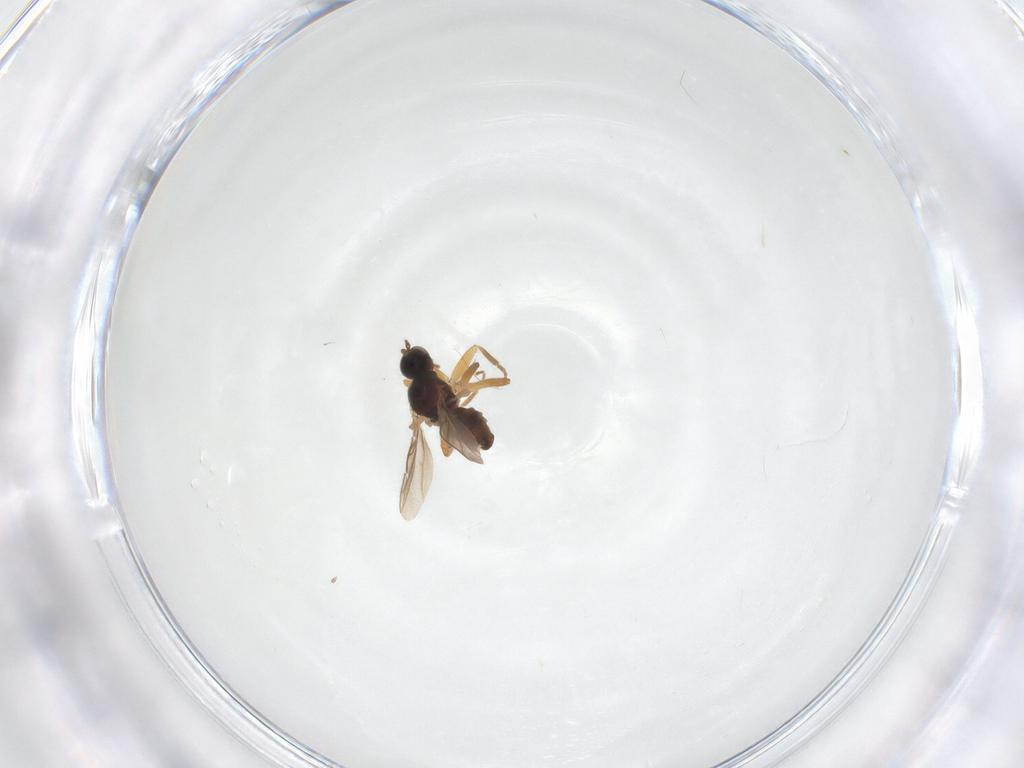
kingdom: Animalia
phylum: Arthropoda
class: Insecta
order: Diptera
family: Hybotidae
